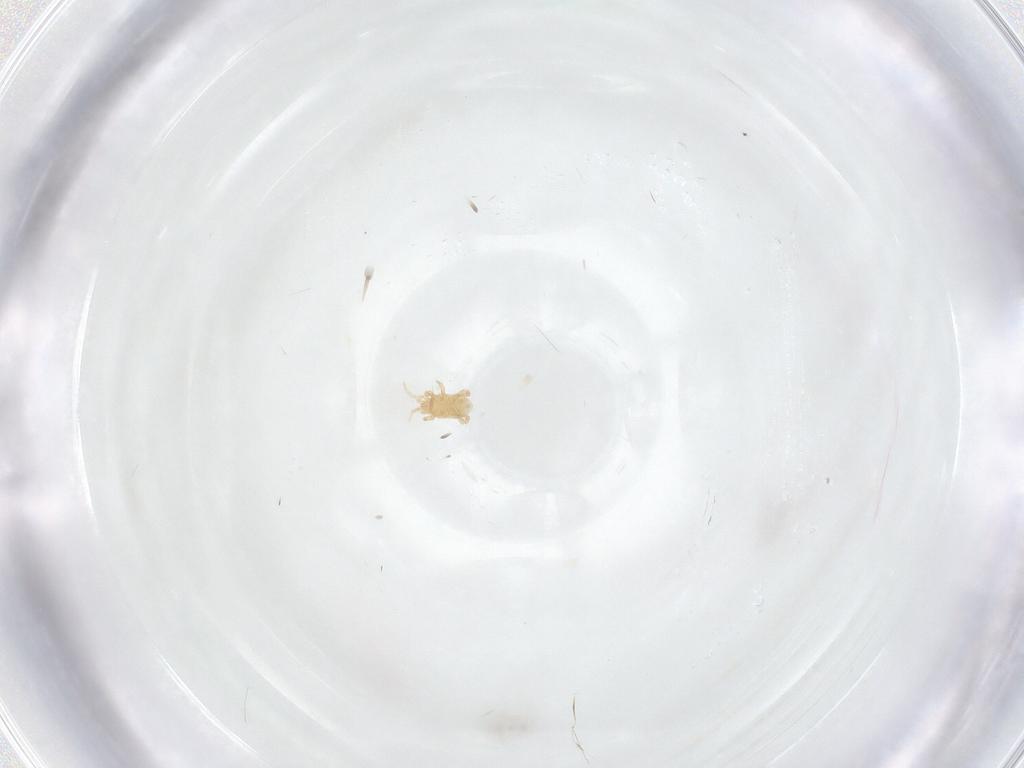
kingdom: Animalia
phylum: Arthropoda
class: Arachnida
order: Mesostigmata
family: Parasitidae
